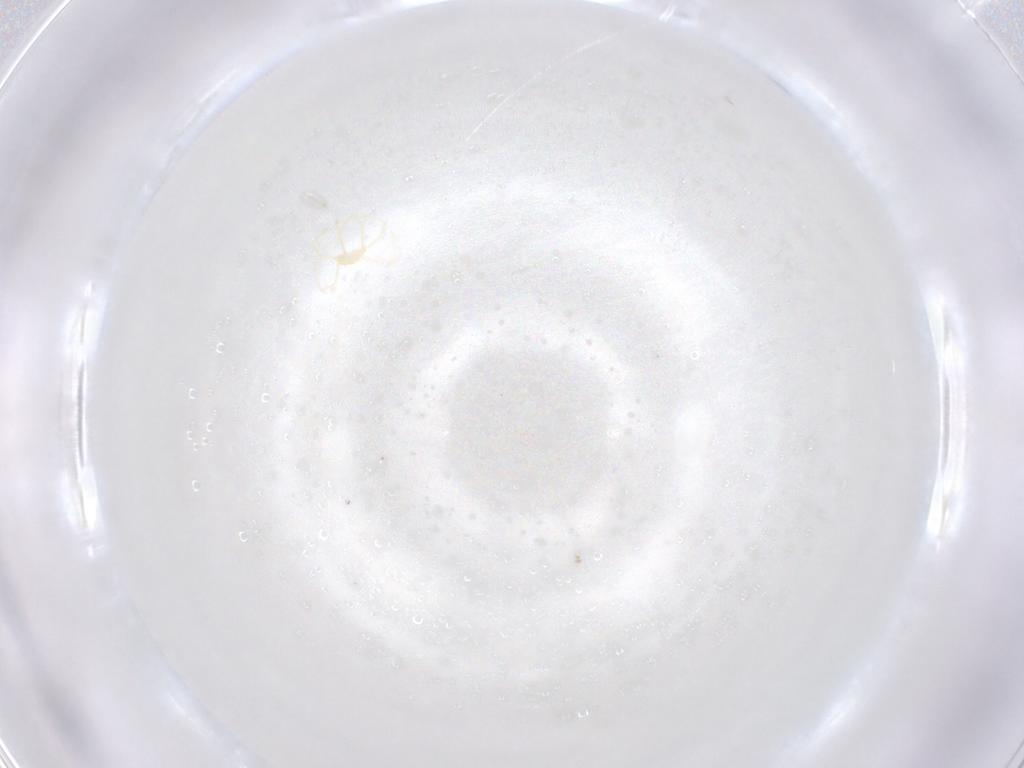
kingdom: Animalia
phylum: Arthropoda
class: Arachnida
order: Trombidiformes
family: Erythraeidae
